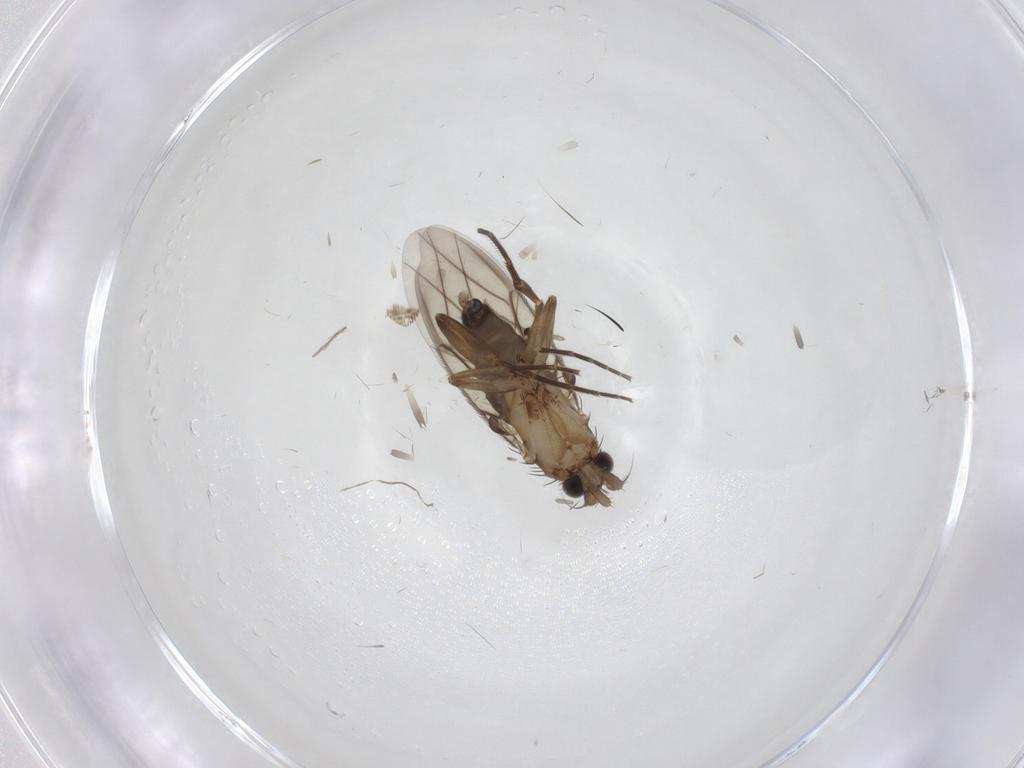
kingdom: Animalia
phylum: Arthropoda
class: Insecta
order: Diptera
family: Phoridae
